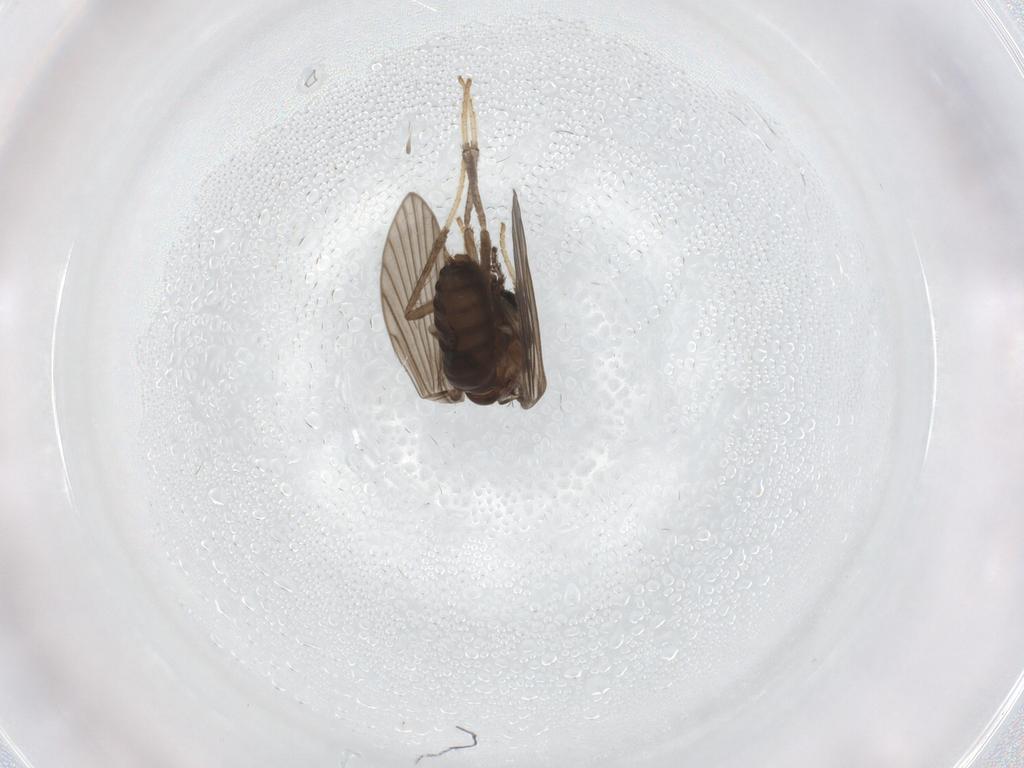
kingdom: Animalia
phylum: Arthropoda
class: Insecta
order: Diptera
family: Psychodidae
